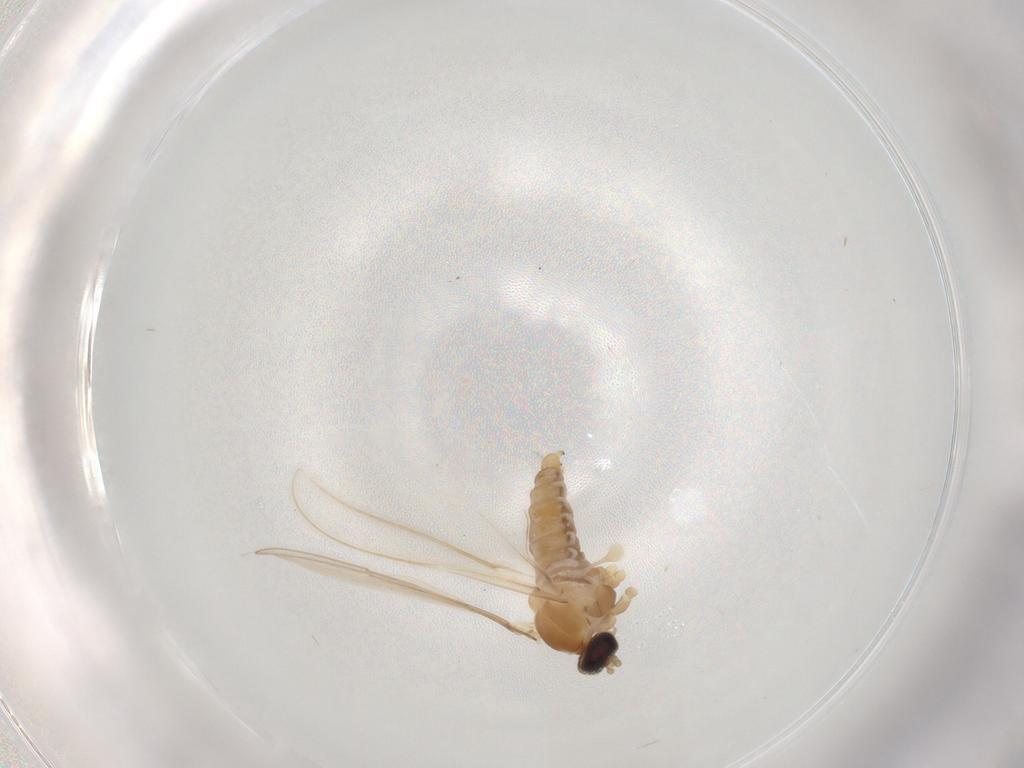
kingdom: Animalia
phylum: Arthropoda
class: Insecta
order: Diptera
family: Cecidomyiidae
